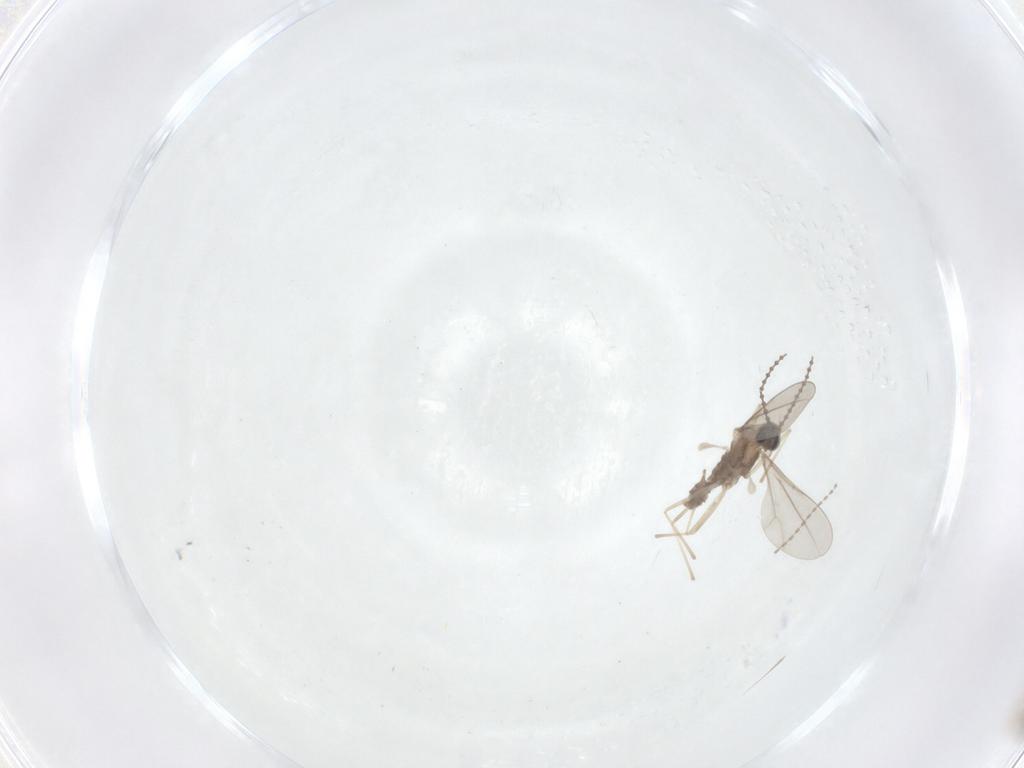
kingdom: Animalia
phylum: Arthropoda
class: Insecta
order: Diptera
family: Cecidomyiidae
